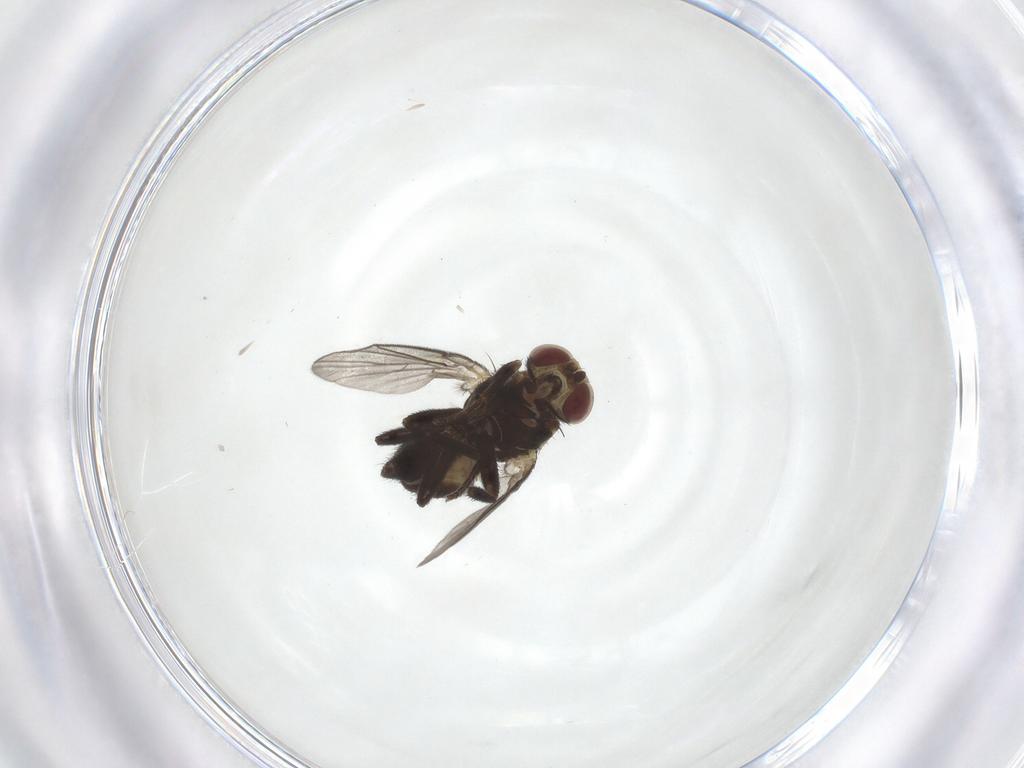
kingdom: Animalia
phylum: Arthropoda
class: Insecta
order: Diptera
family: Agromyzidae
